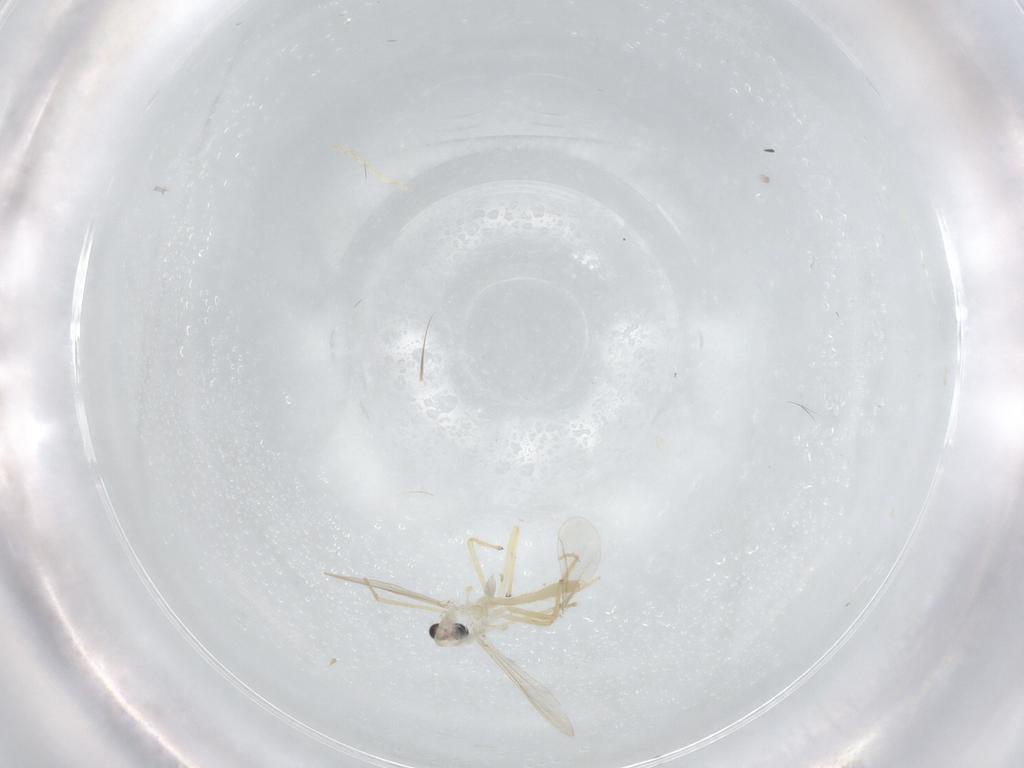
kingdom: Animalia
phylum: Arthropoda
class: Insecta
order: Diptera
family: Chironomidae
